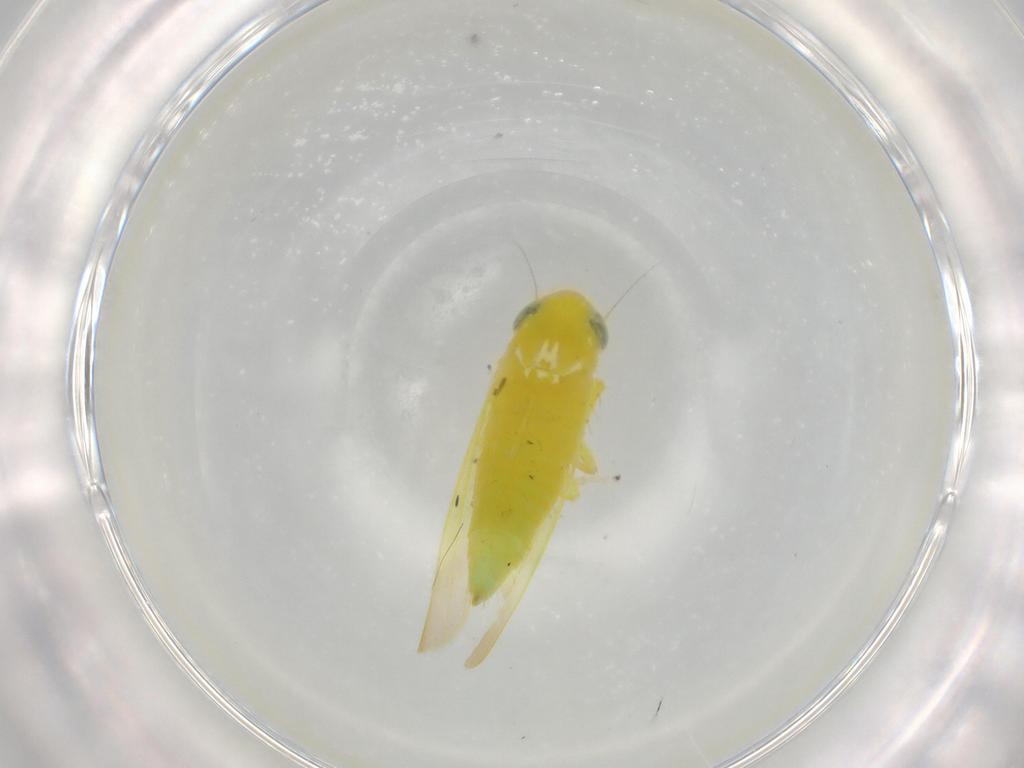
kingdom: Animalia
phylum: Arthropoda
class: Insecta
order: Hemiptera
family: Cicadellidae
